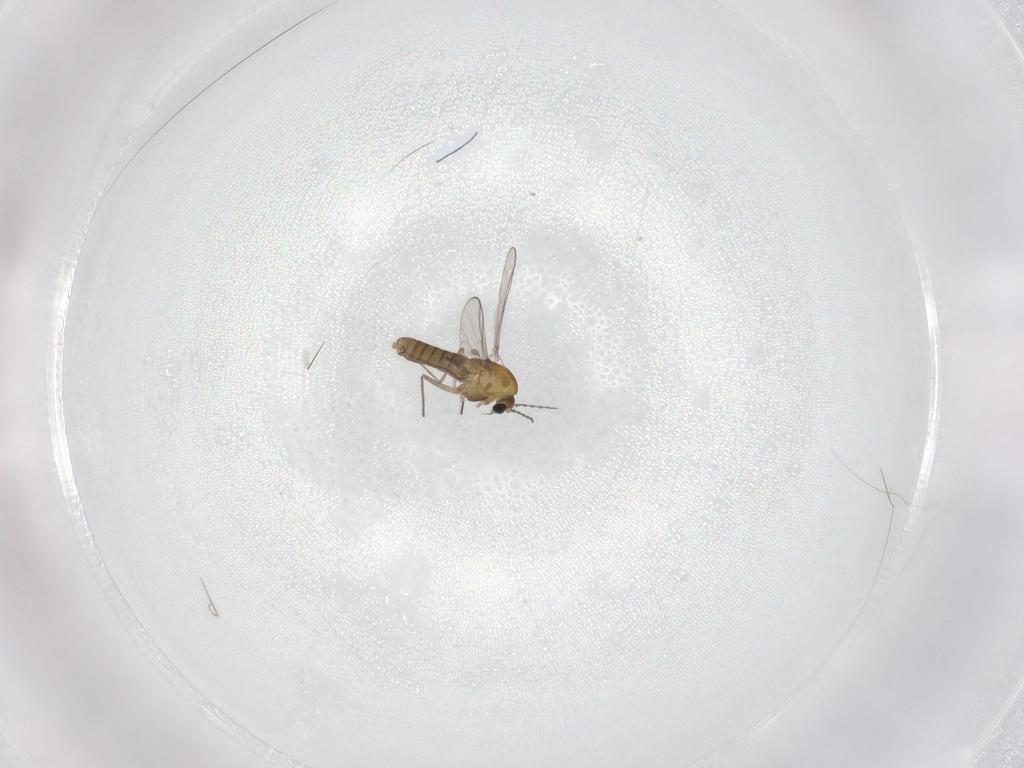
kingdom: Animalia
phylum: Arthropoda
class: Insecta
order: Diptera
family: Chironomidae
